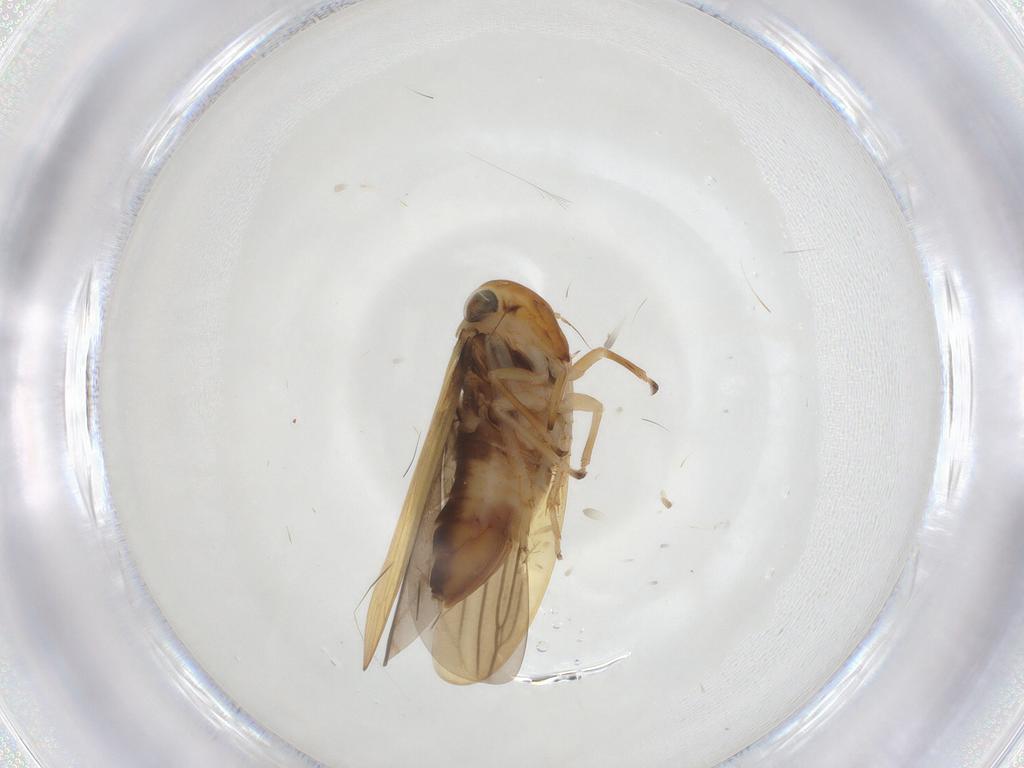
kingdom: Animalia
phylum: Arthropoda
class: Insecta
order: Hemiptera
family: Cicadellidae
